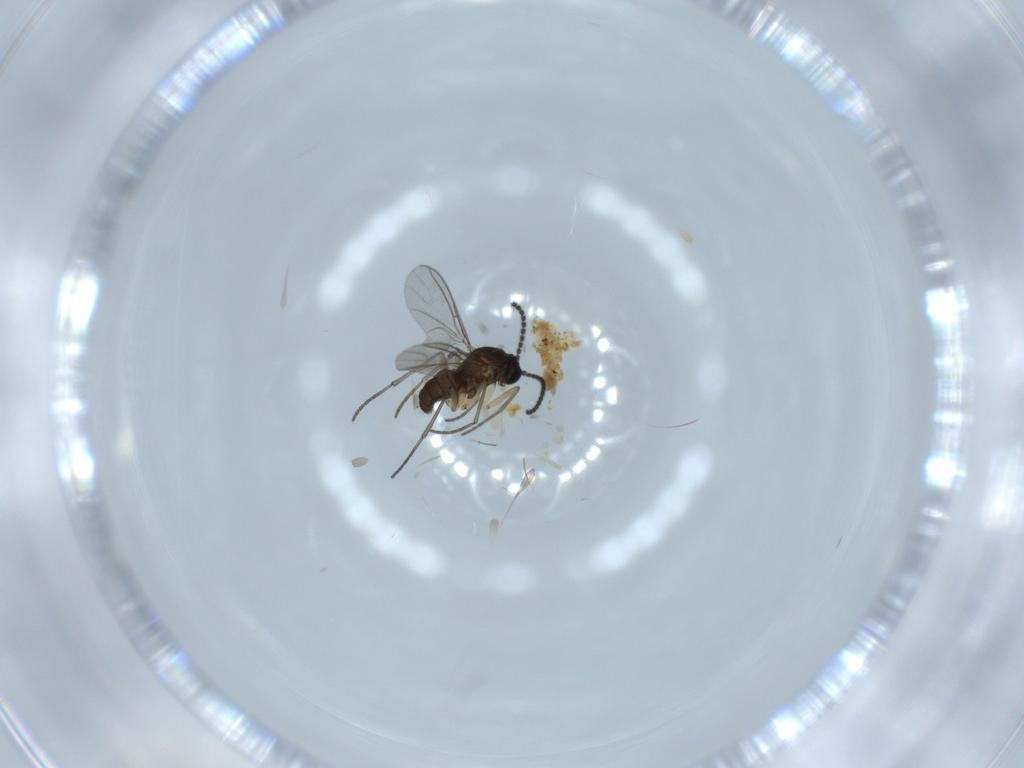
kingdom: Animalia
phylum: Arthropoda
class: Insecta
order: Diptera
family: Sciaridae
